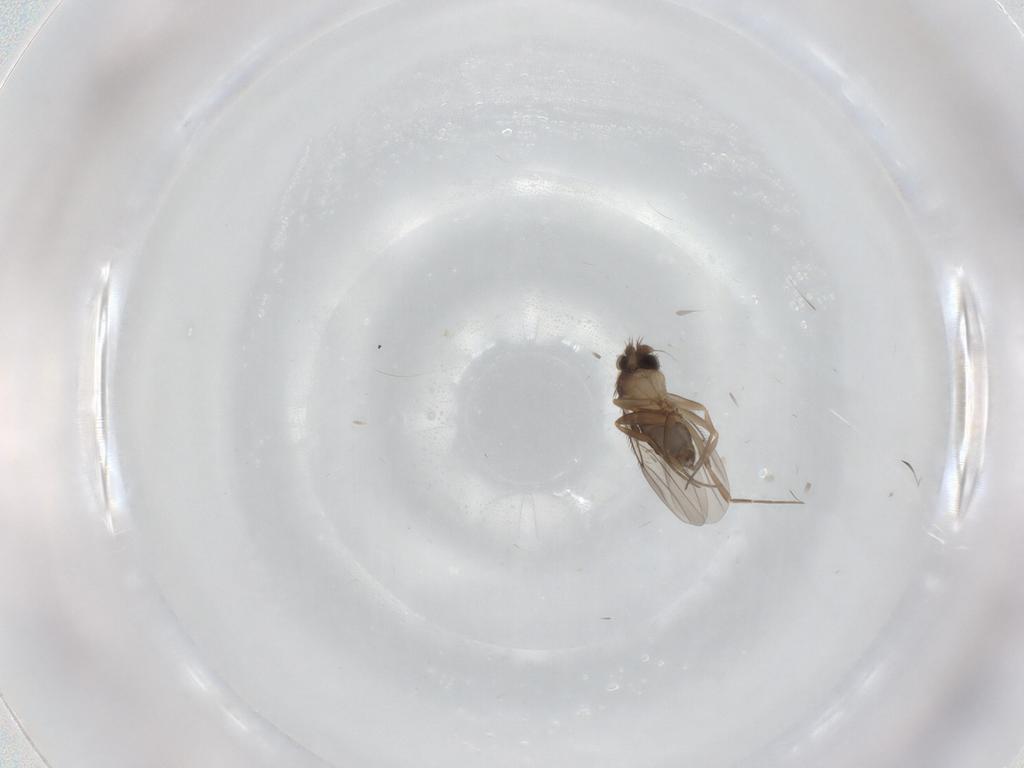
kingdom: Animalia
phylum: Arthropoda
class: Insecta
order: Diptera
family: Phoridae
